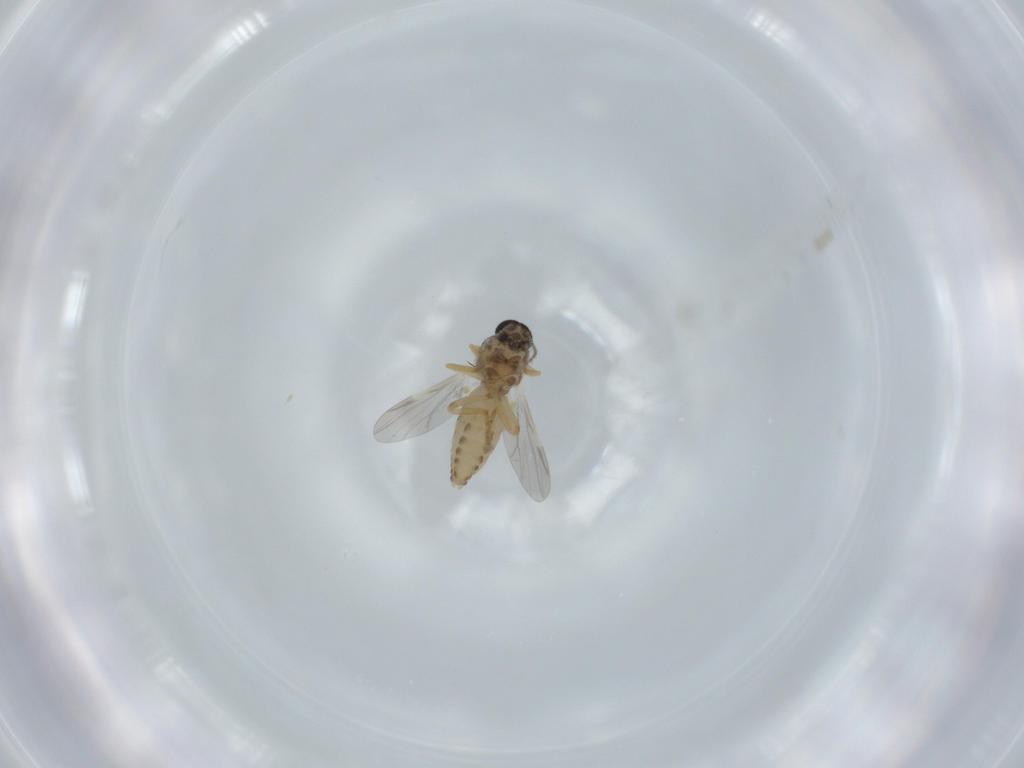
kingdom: Animalia
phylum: Arthropoda
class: Insecta
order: Diptera
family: Ceratopogonidae
